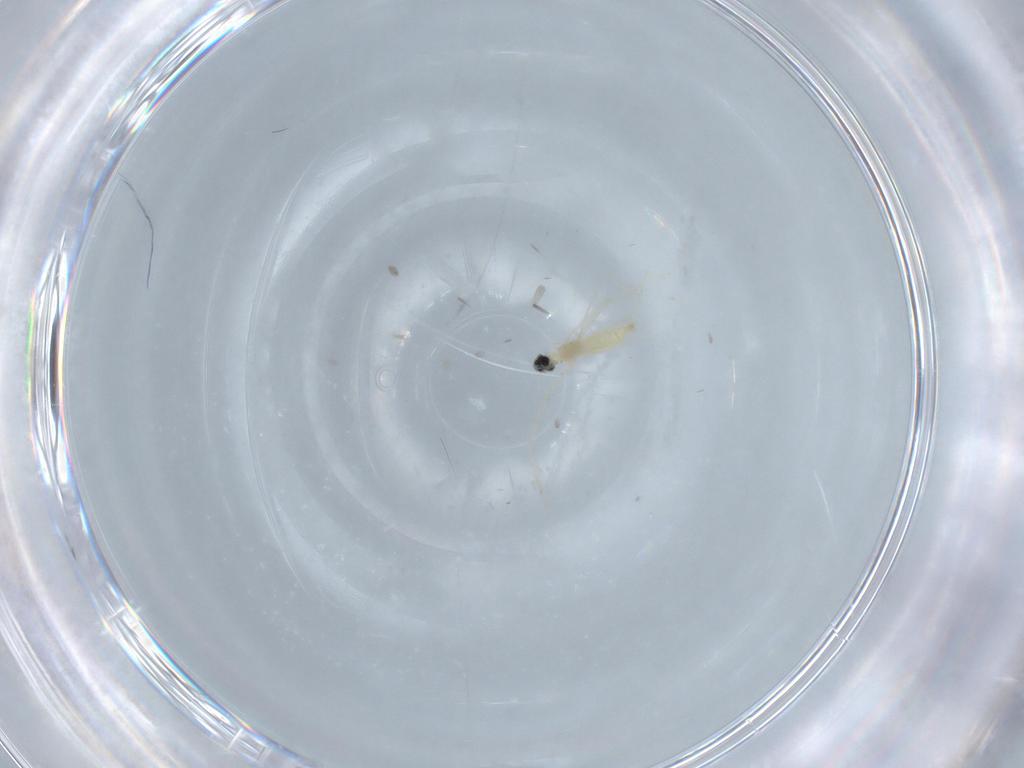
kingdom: Animalia
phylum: Arthropoda
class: Insecta
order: Diptera
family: Cecidomyiidae
